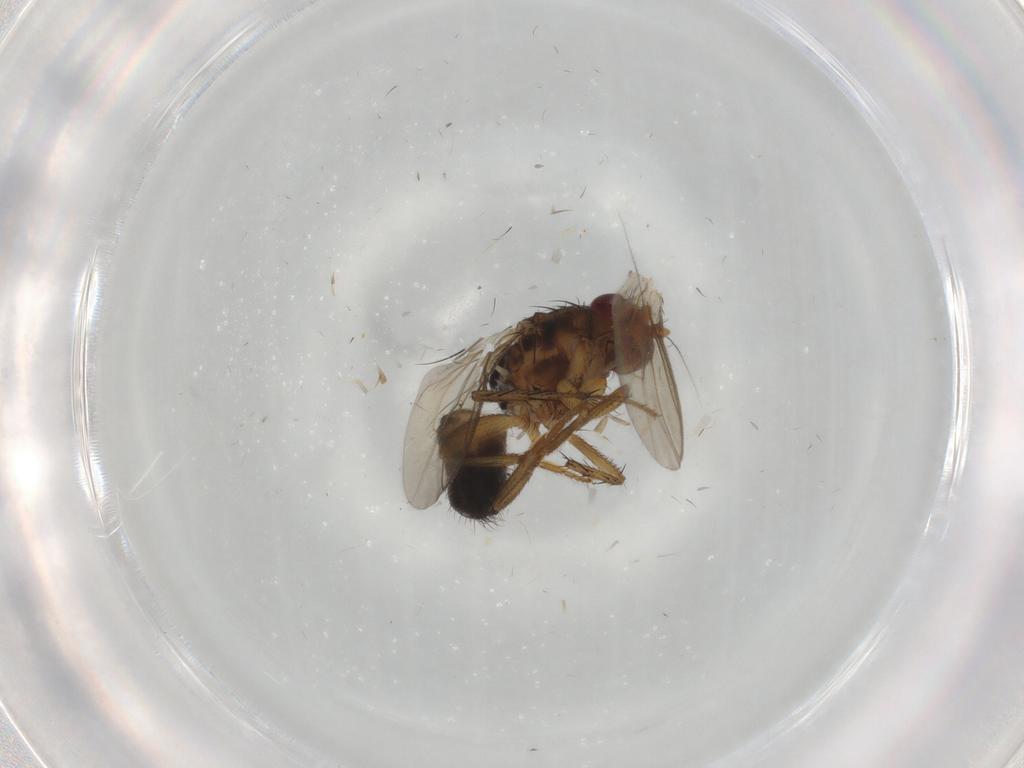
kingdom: Animalia
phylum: Arthropoda
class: Insecta
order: Diptera
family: Sphaeroceridae
